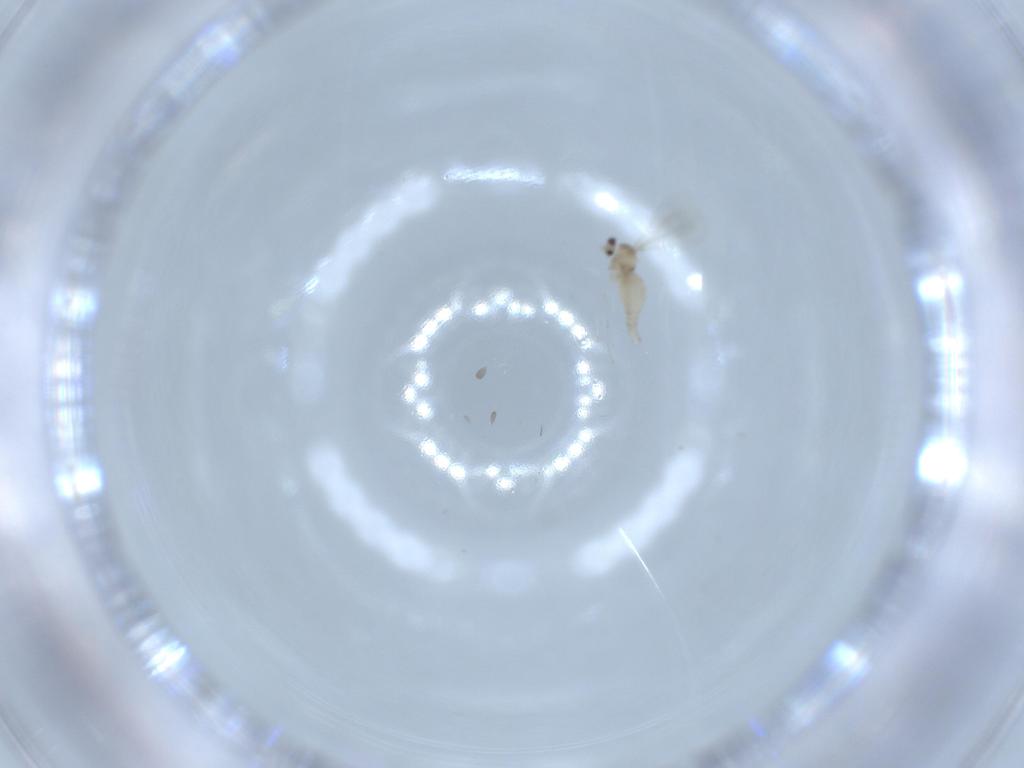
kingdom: Animalia
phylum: Arthropoda
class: Insecta
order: Diptera
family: Cecidomyiidae
